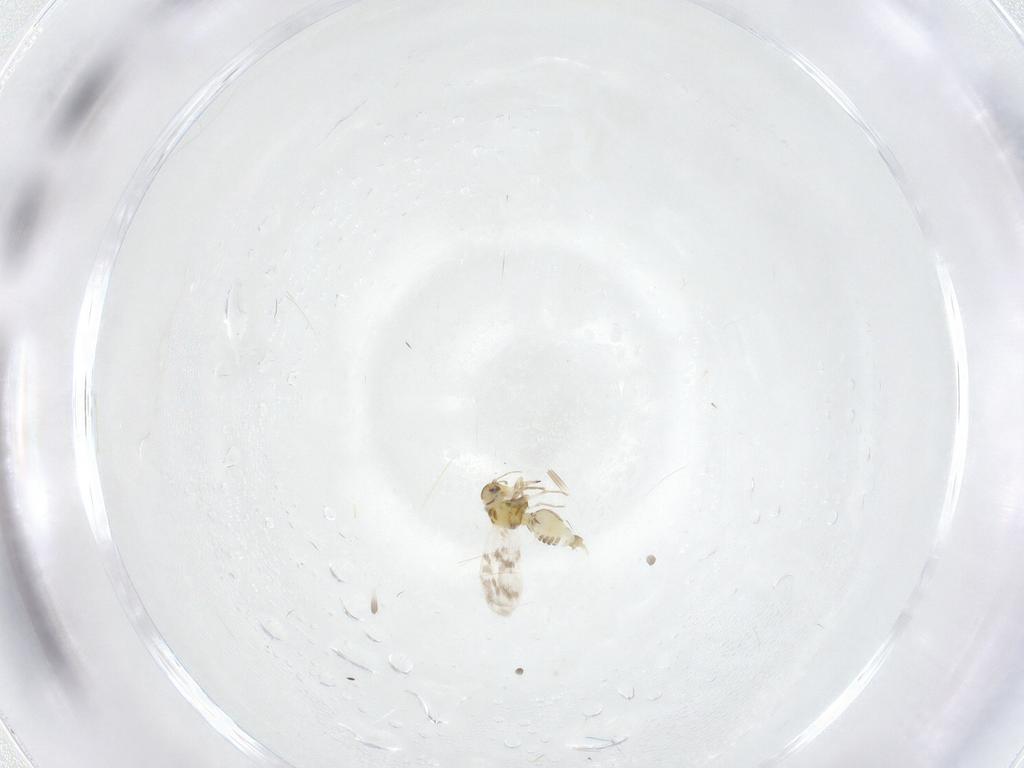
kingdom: Animalia
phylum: Arthropoda
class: Insecta
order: Hemiptera
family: Aleyrodidae
